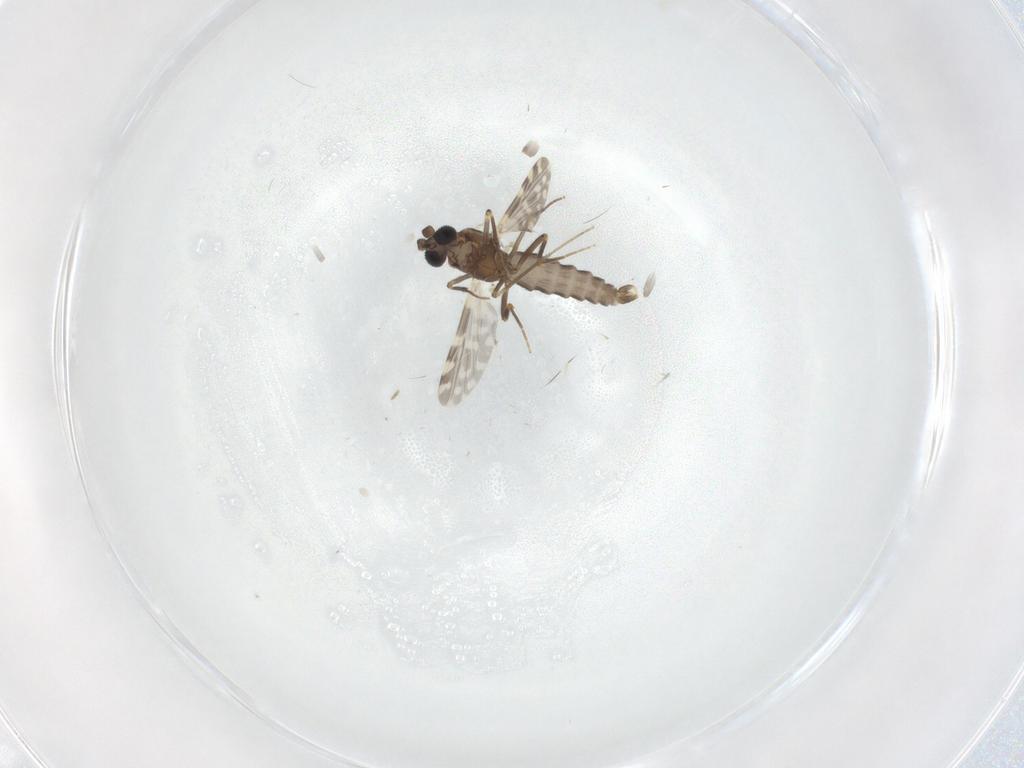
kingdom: Animalia
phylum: Arthropoda
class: Insecta
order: Diptera
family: Ceratopogonidae
